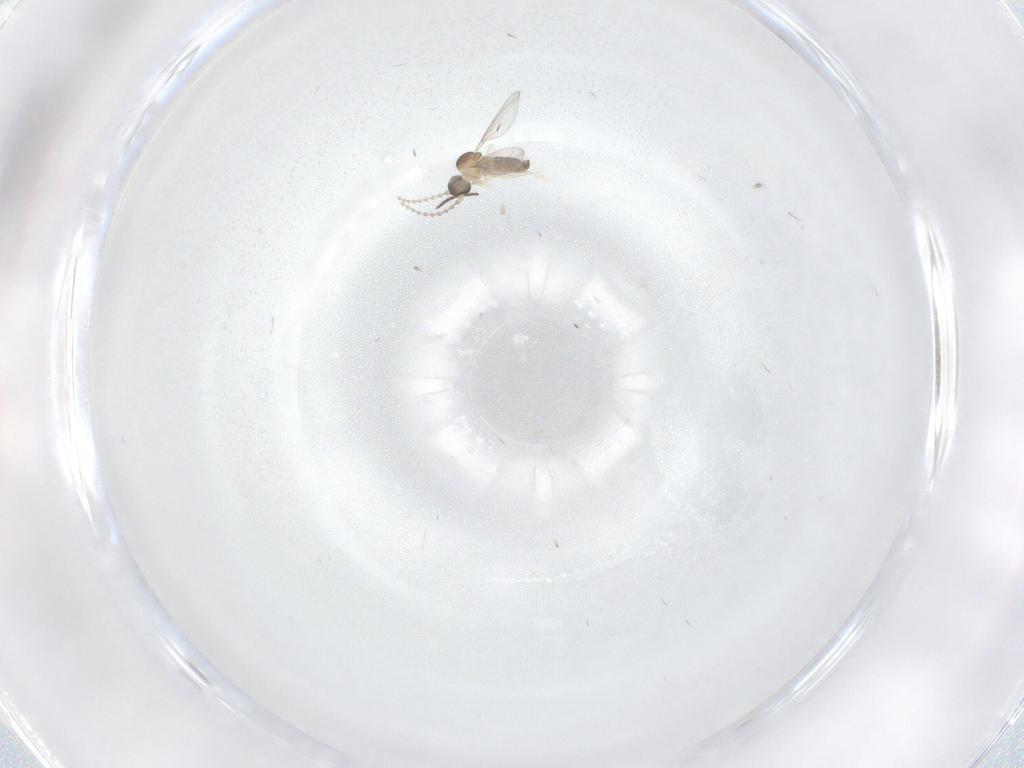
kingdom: Animalia
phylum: Arthropoda
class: Insecta
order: Diptera
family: Cecidomyiidae
